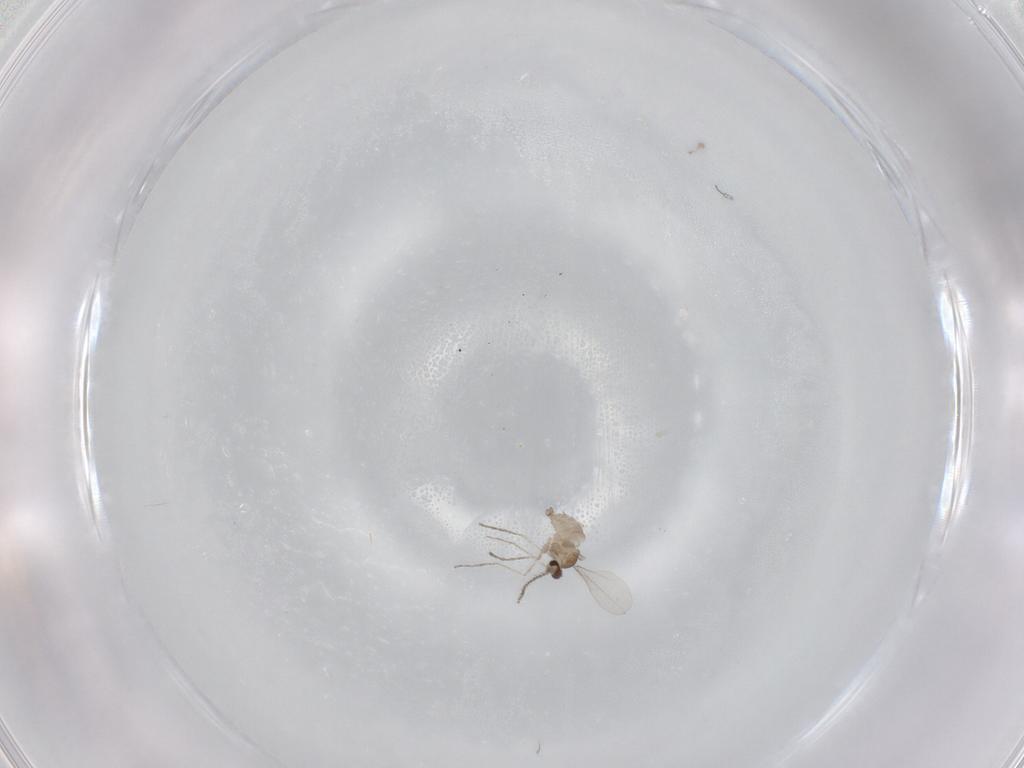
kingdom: Animalia
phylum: Arthropoda
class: Insecta
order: Diptera
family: Cecidomyiidae
